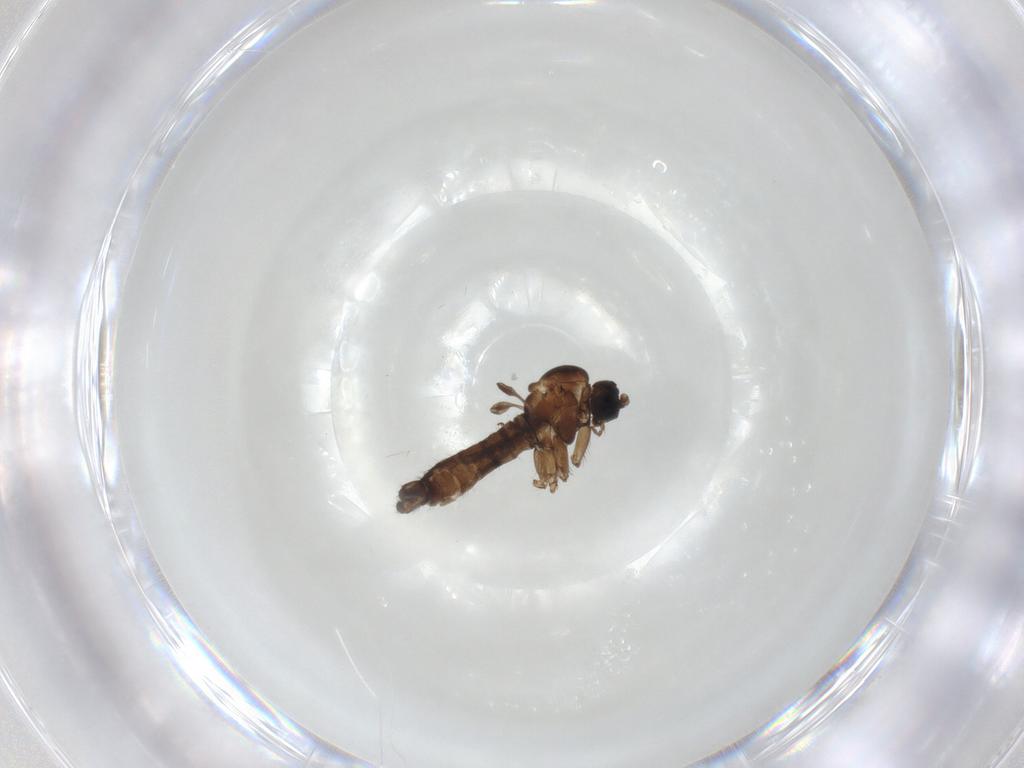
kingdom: Animalia
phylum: Arthropoda
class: Insecta
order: Diptera
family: Sciaridae
